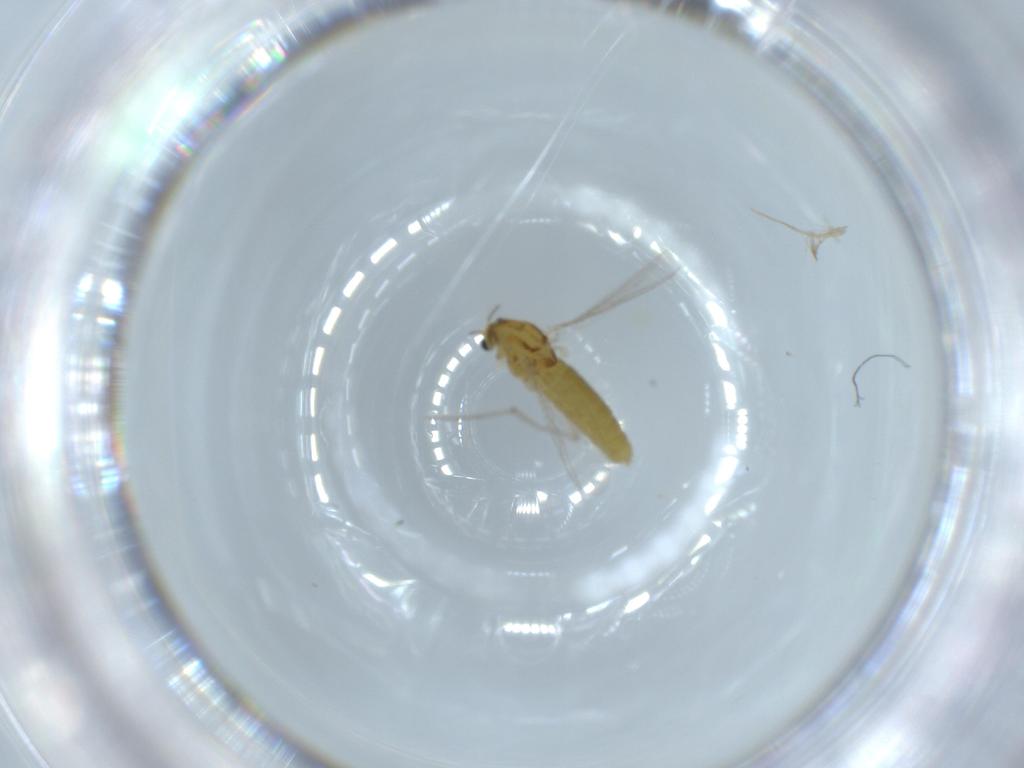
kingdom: Animalia
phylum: Arthropoda
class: Insecta
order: Diptera
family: Chironomidae
